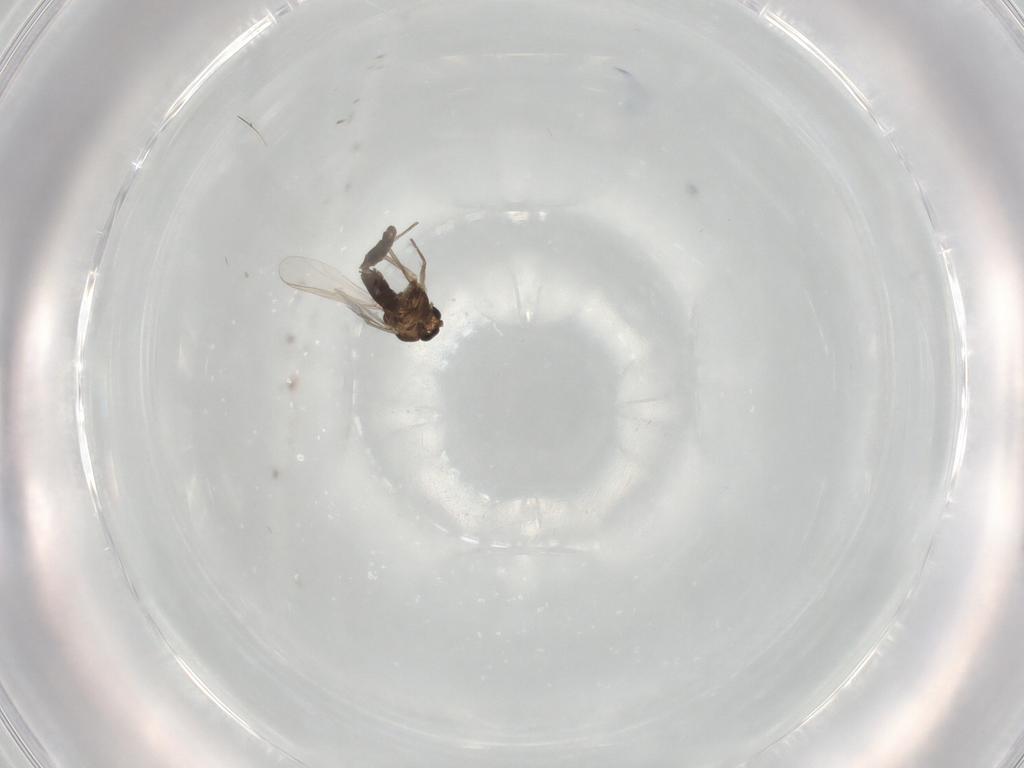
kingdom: Animalia
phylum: Arthropoda
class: Insecta
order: Diptera
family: Chironomidae
